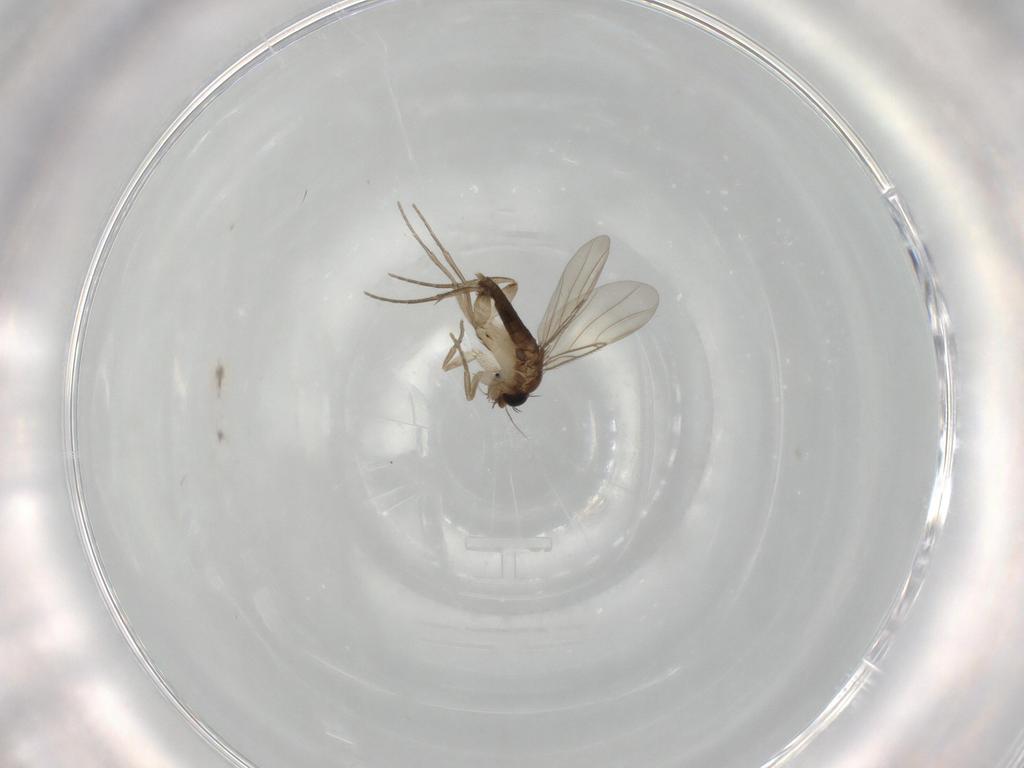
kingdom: Animalia
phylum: Arthropoda
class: Insecta
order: Diptera
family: Phoridae
